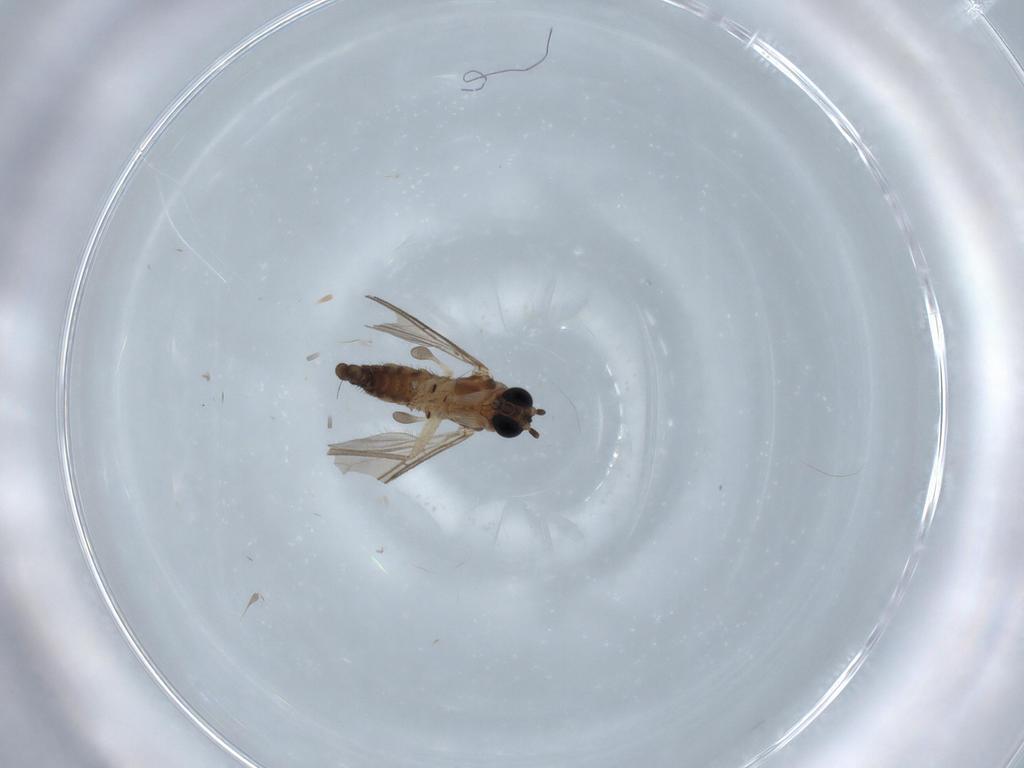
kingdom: Animalia
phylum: Arthropoda
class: Insecta
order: Diptera
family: Sciaridae
